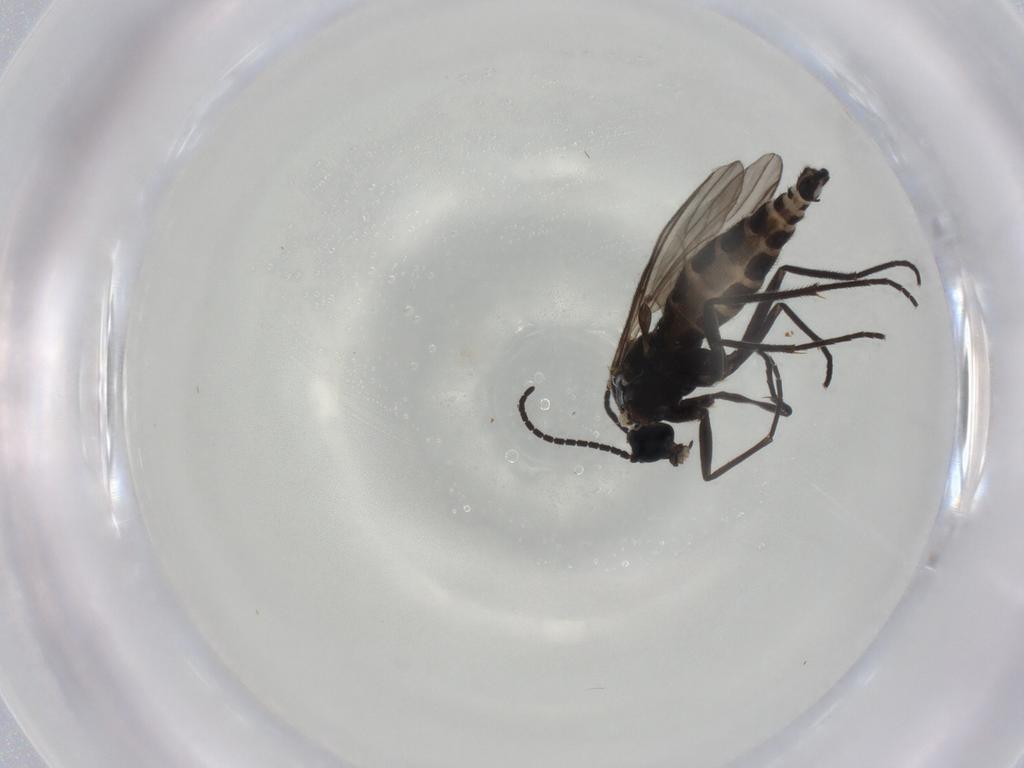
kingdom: Animalia
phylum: Arthropoda
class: Insecta
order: Diptera
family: Sciaridae
